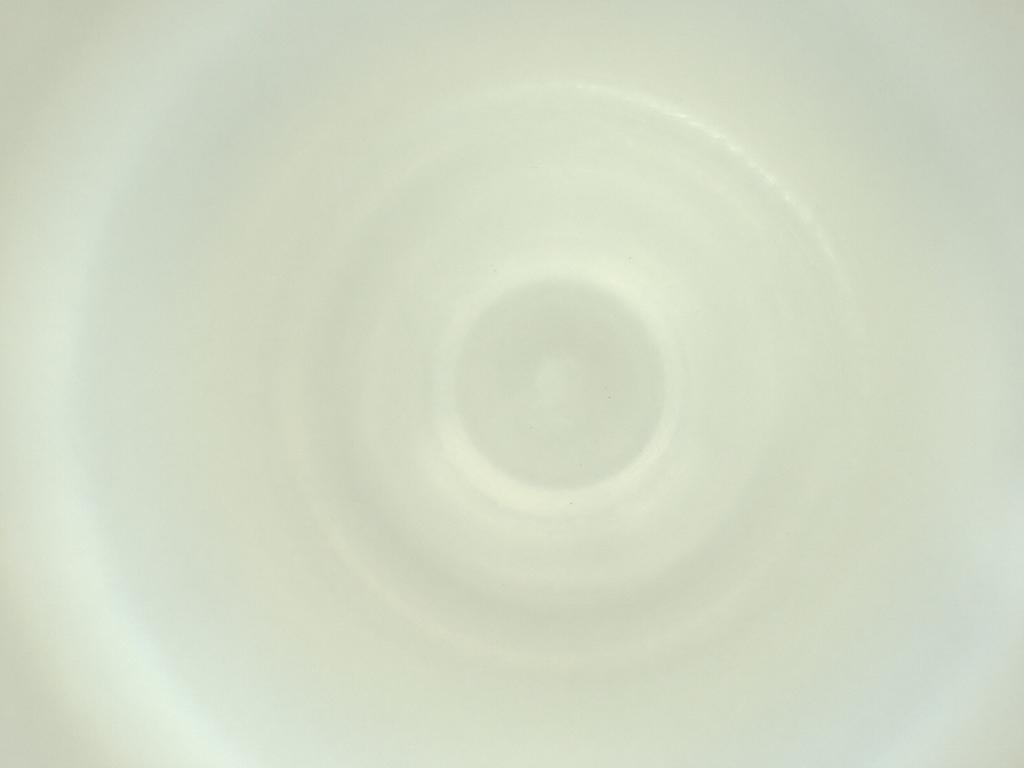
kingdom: Animalia
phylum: Arthropoda
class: Insecta
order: Diptera
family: Cecidomyiidae
